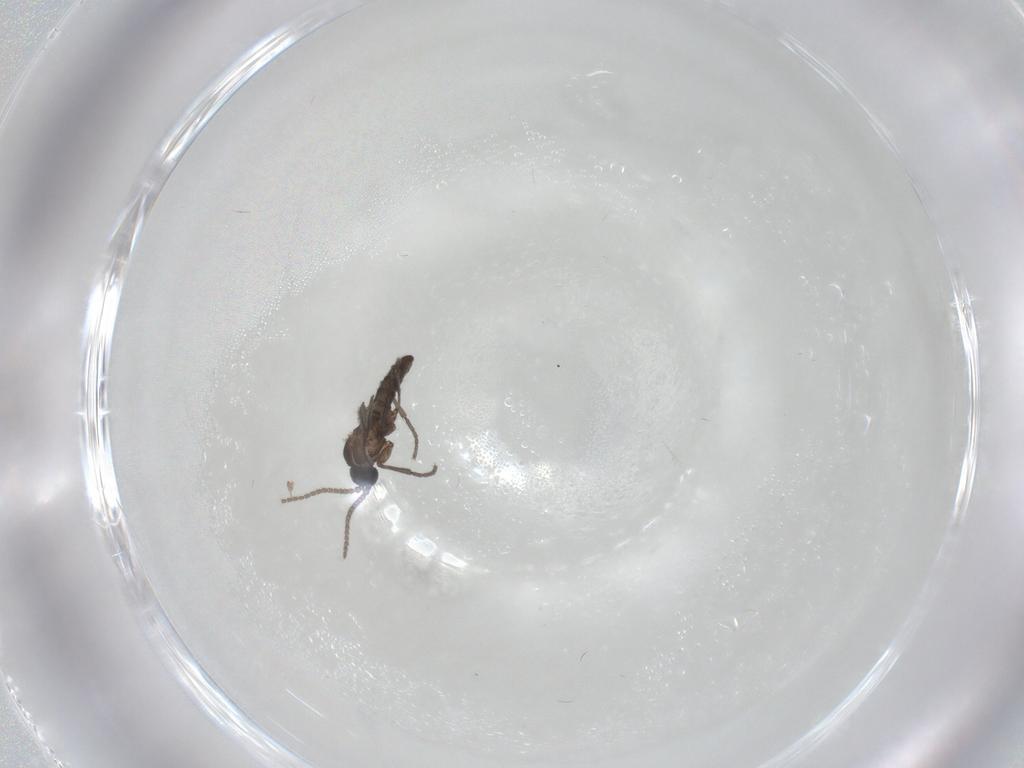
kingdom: Animalia
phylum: Arthropoda
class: Insecta
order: Diptera
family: Sciaridae
